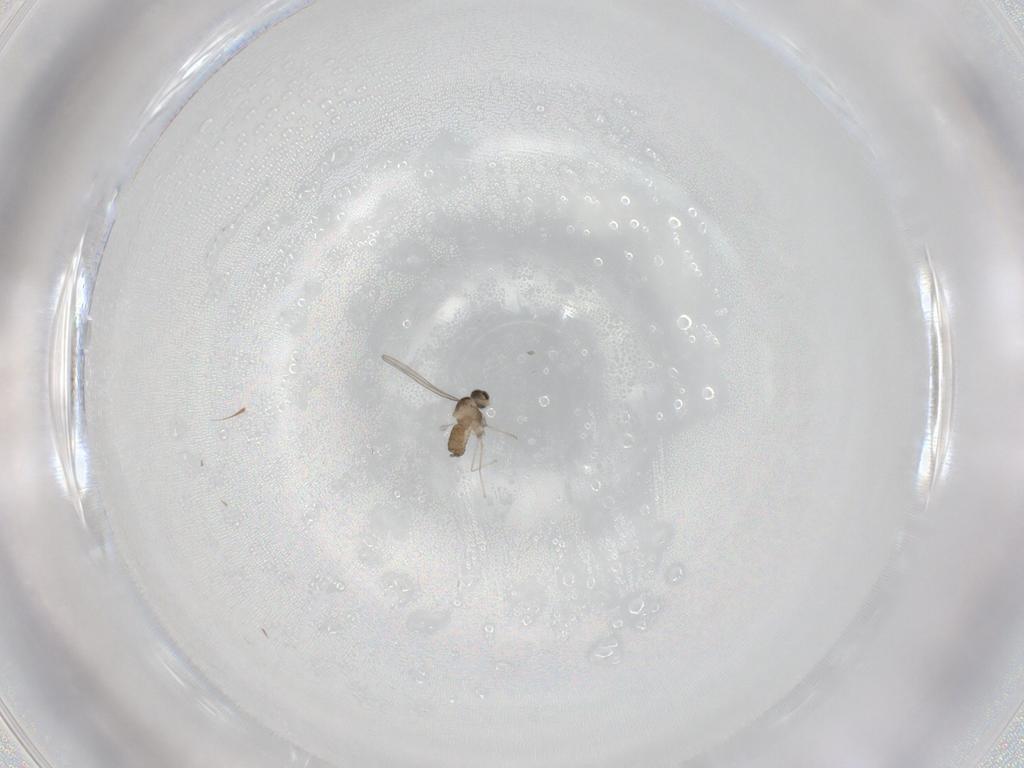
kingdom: Animalia
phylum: Arthropoda
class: Insecta
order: Diptera
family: Cecidomyiidae
